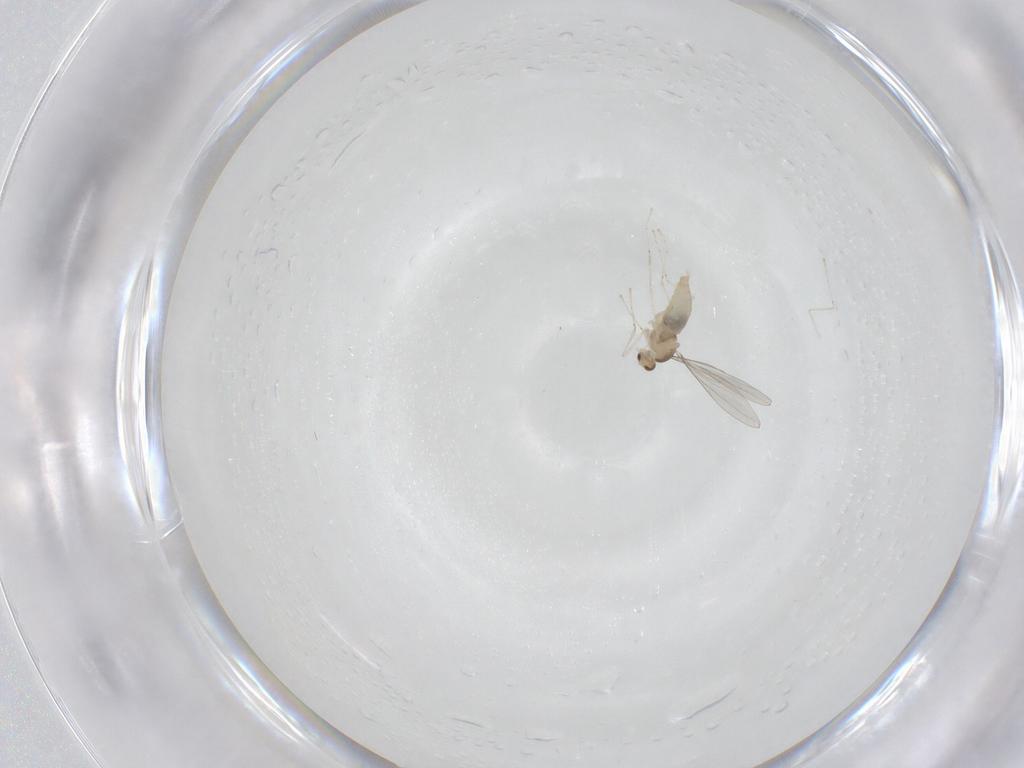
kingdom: Animalia
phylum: Arthropoda
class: Insecta
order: Diptera
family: Cecidomyiidae
